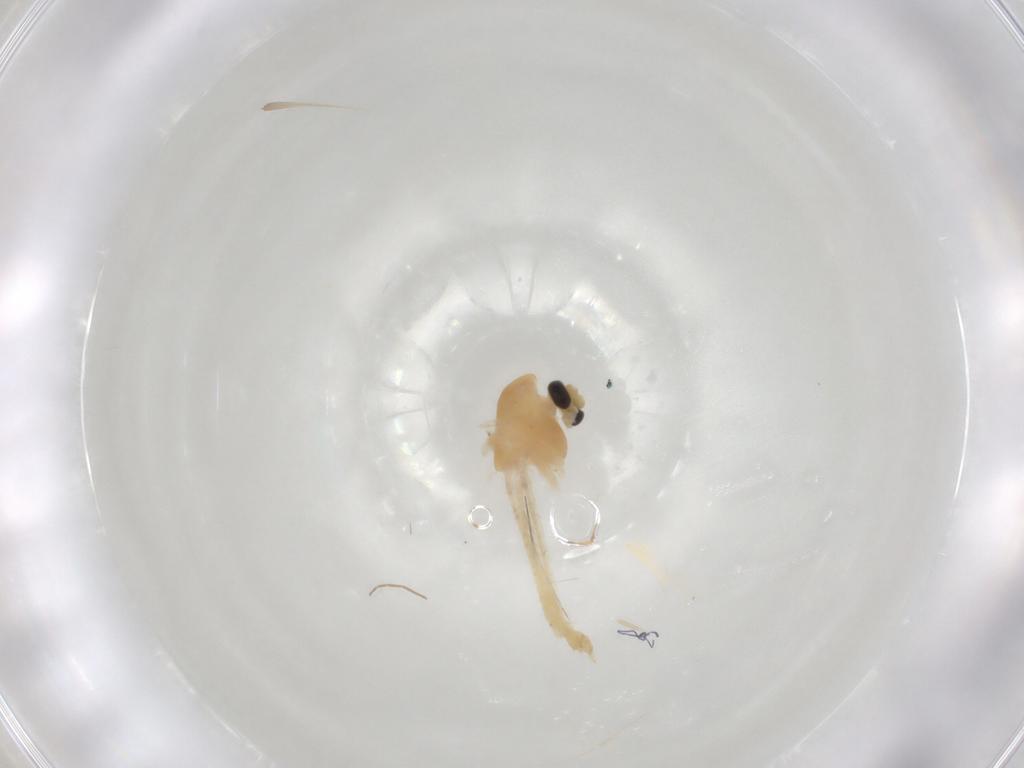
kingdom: Animalia
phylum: Arthropoda
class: Insecta
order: Diptera
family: Chironomidae
